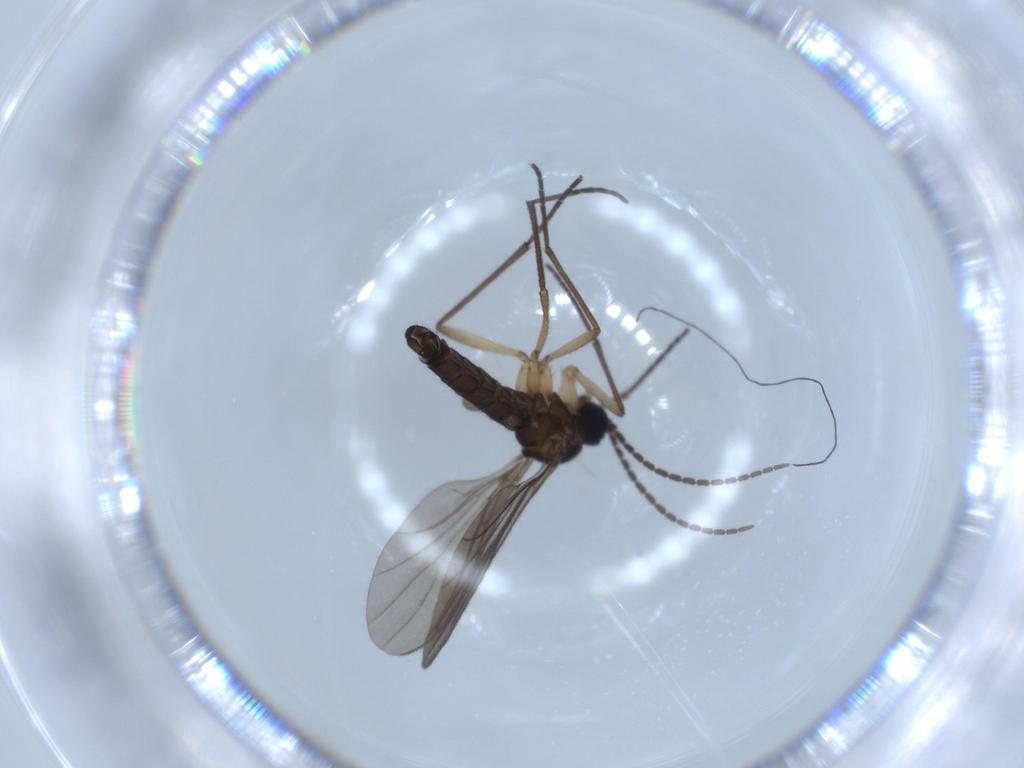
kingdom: Animalia
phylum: Arthropoda
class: Insecta
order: Diptera
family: Sciaridae
